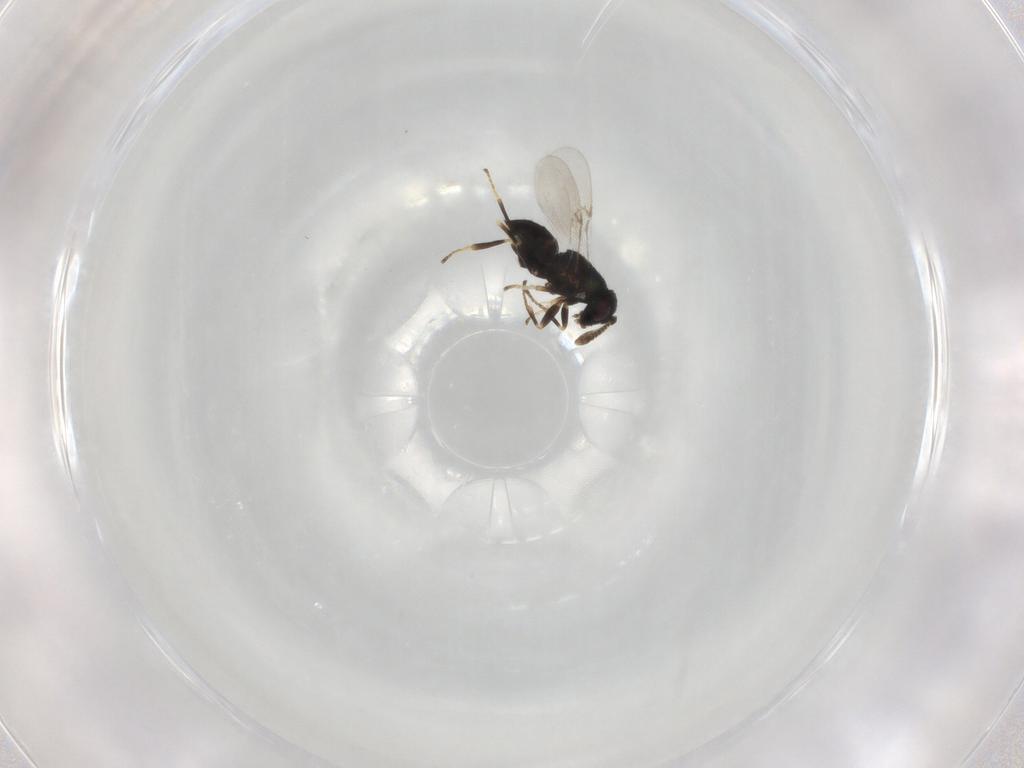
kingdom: Animalia
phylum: Arthropoda
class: Insecta
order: Hymenoptera
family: Encyrtidae
